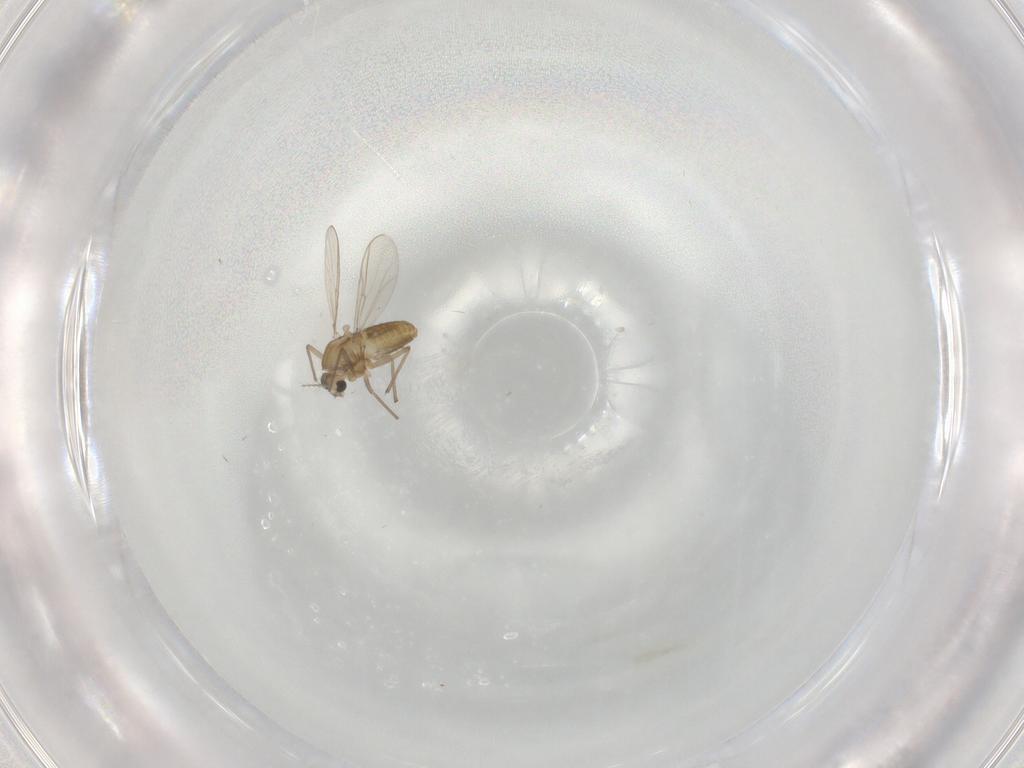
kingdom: Animalia
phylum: Arthropoda
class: Insecta
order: Diptera
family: Chironomidae
